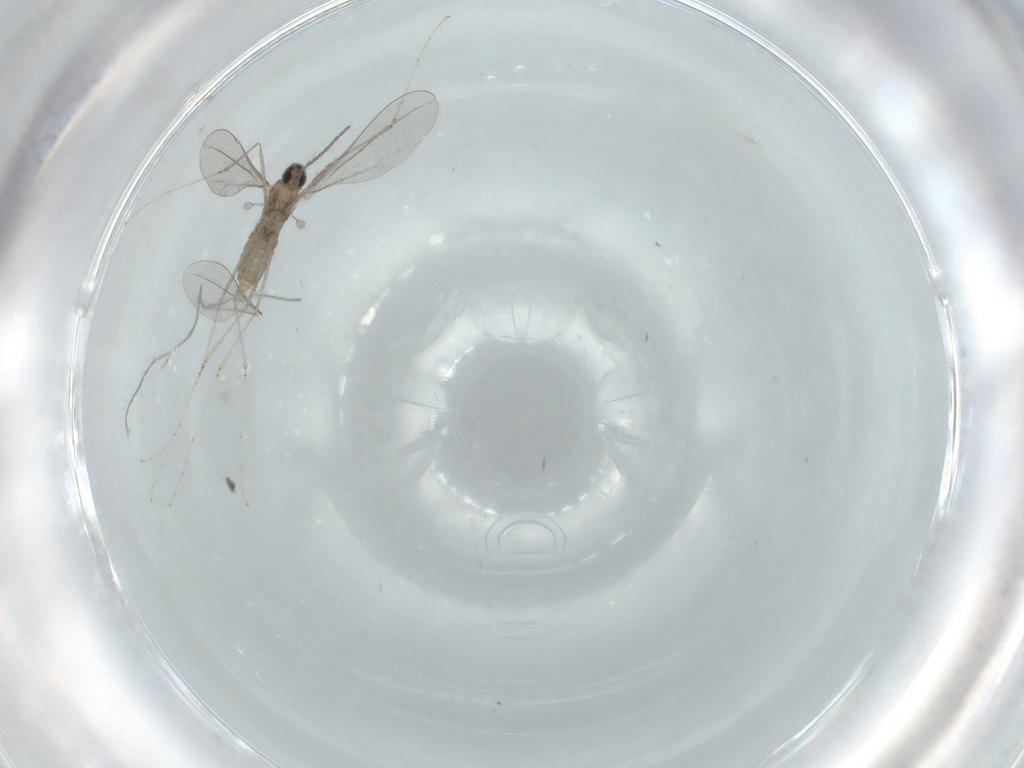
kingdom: Animalia
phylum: Arthropoda
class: Insecta
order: Diptera
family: Cecidomyiidae
